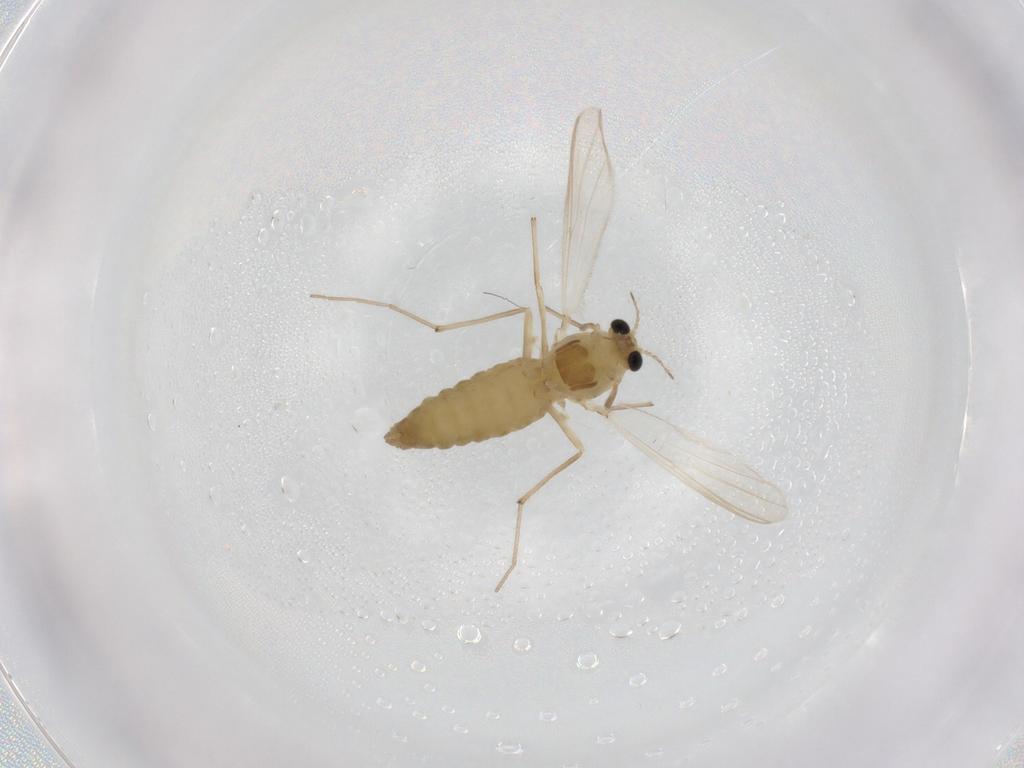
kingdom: Animalia
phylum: Arthropoda
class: Insecta
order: Diptera
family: Chironomidae
